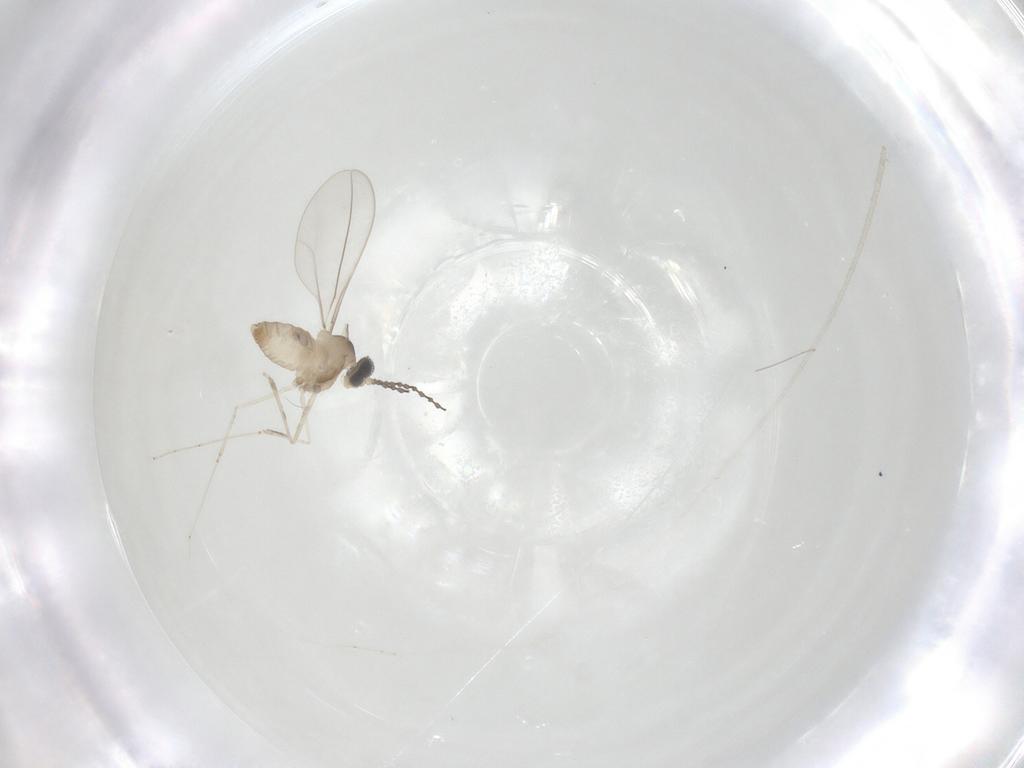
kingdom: Animalia
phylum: Arthropoda
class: Insecta
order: Diptera
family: Cecidomyiidae
